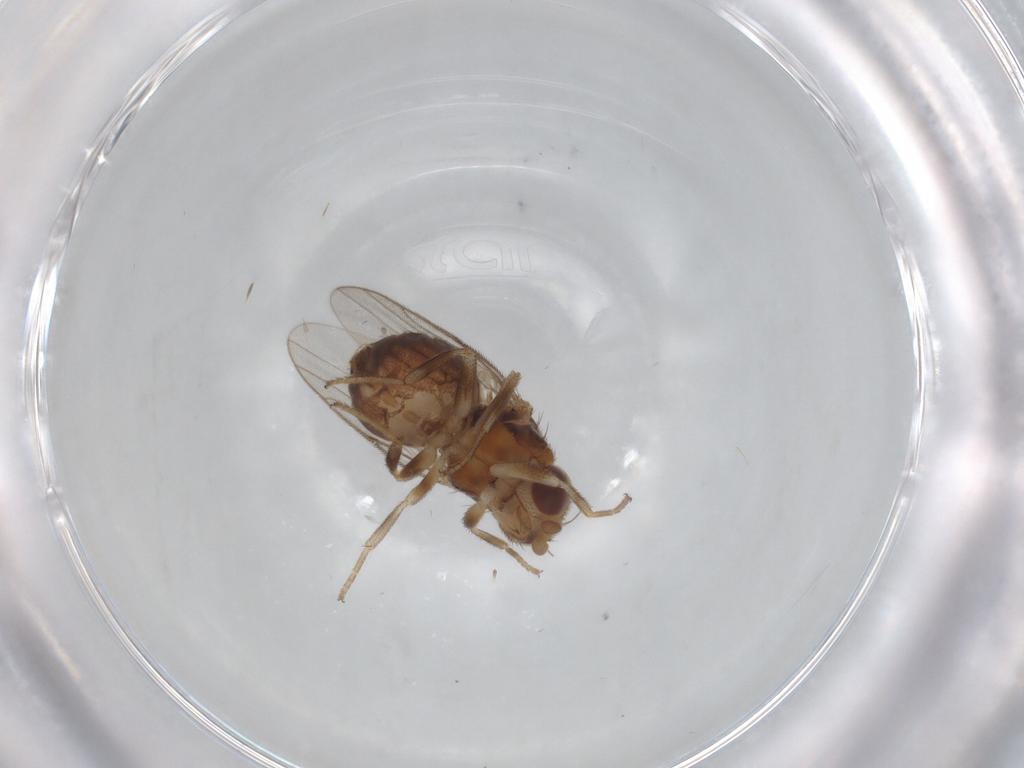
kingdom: Animalia
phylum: Arthropoda
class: Insecta
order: Diptera
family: Chloropidae
